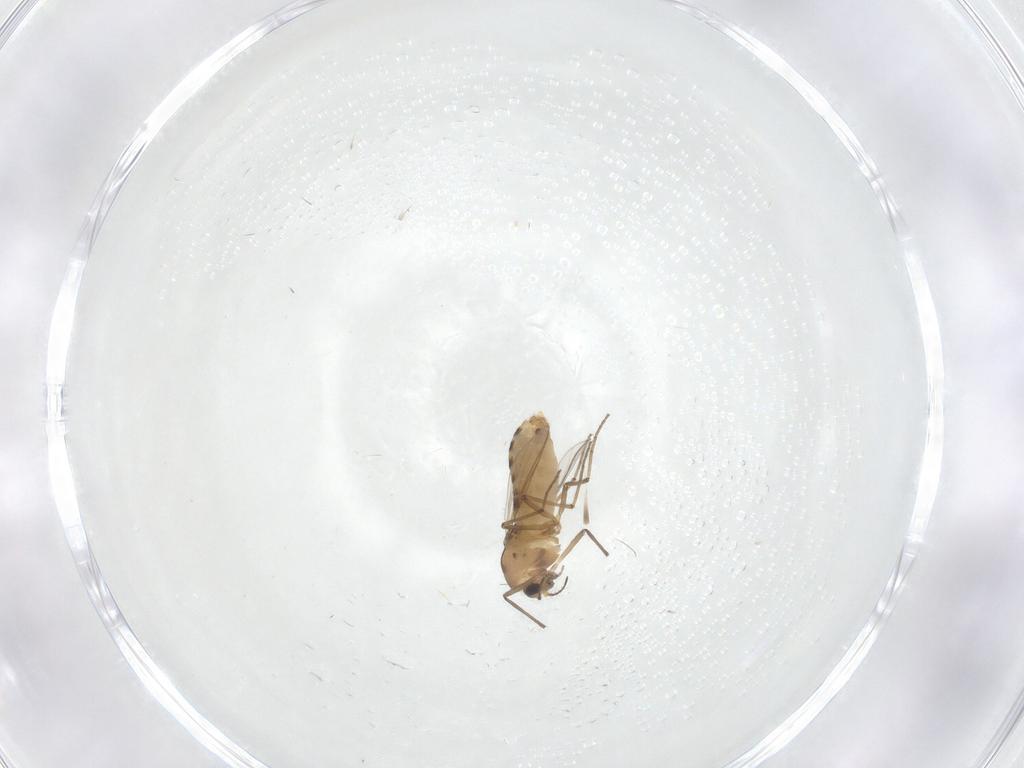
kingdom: Animalia
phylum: Arthropoda
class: Insecta
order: Diptera
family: Chironomidae
